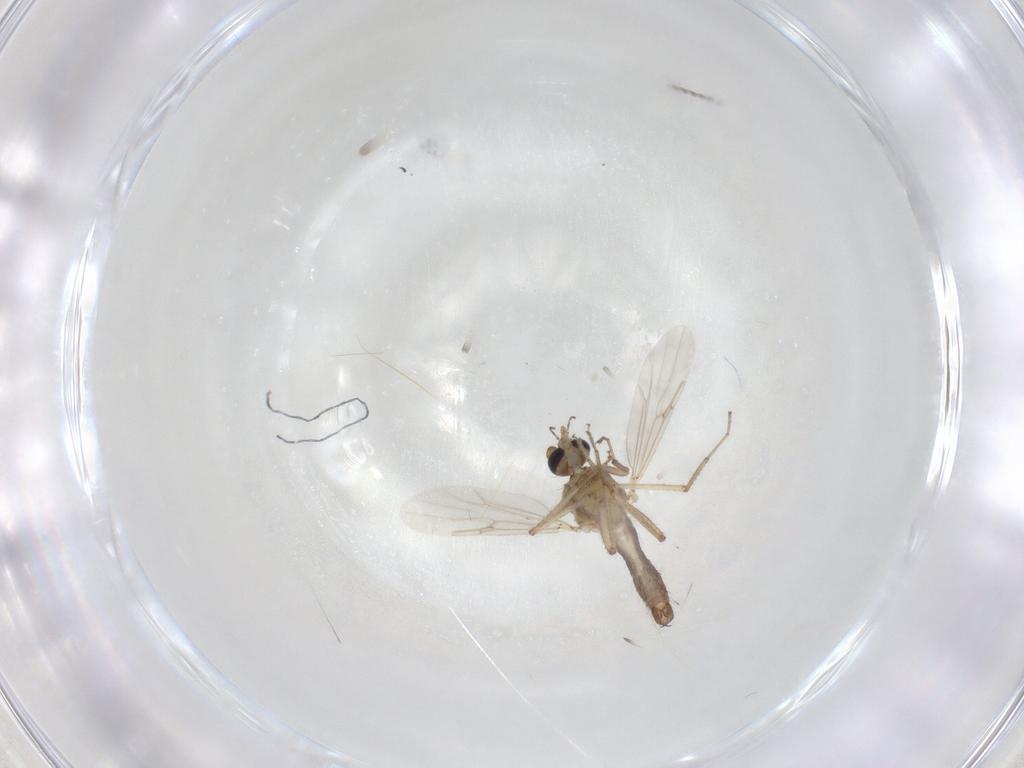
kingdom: Animalia
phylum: Arthropoda
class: Insecta
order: Diptera
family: Ceratopogonidae
